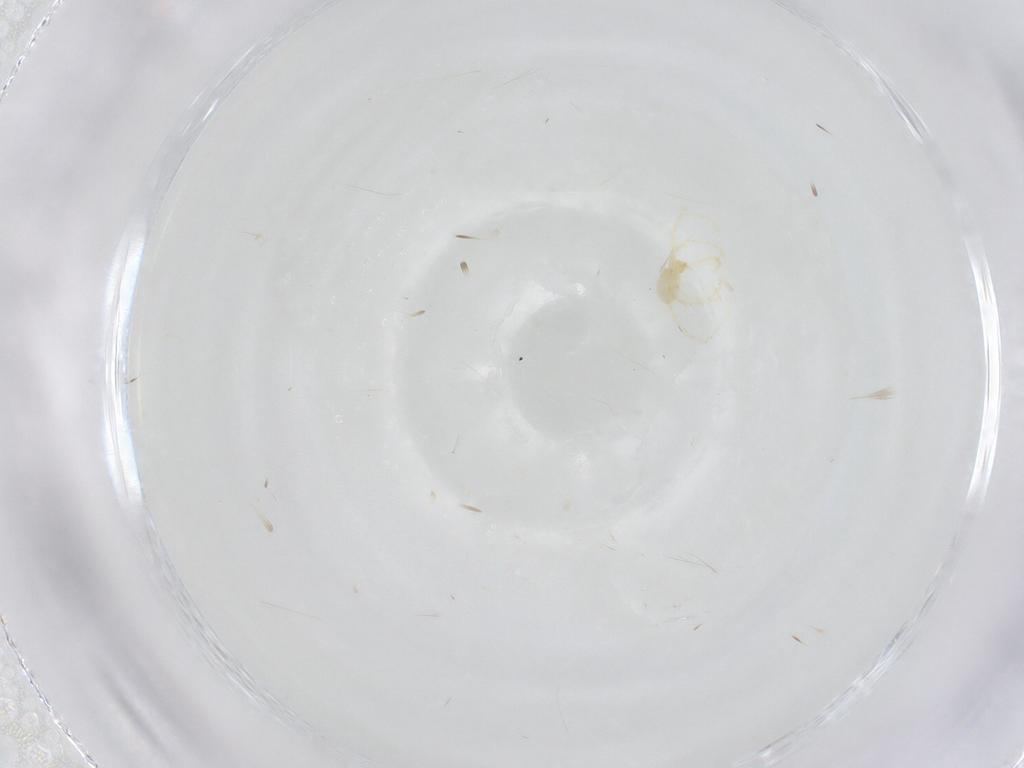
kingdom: Animalia
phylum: Arthropoda
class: Arachnida
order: Trombidiformes
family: Erythraeidae
